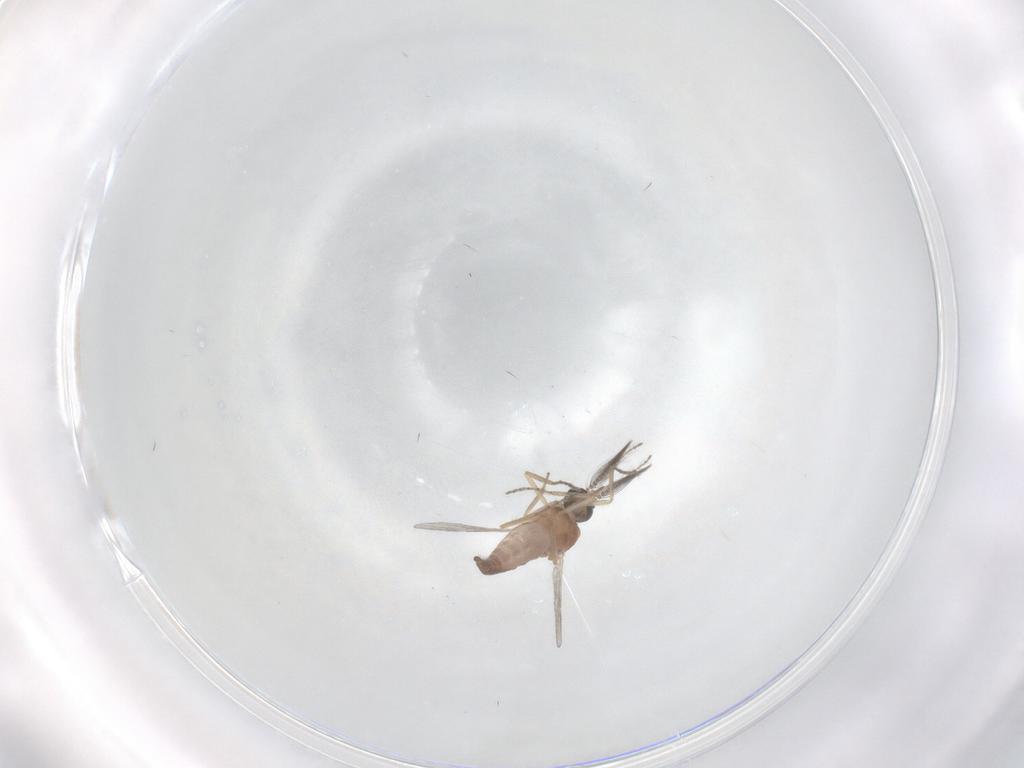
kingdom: Animalia
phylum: Arthropoda
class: Insecta
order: Diptera
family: Ceratopogonidae
